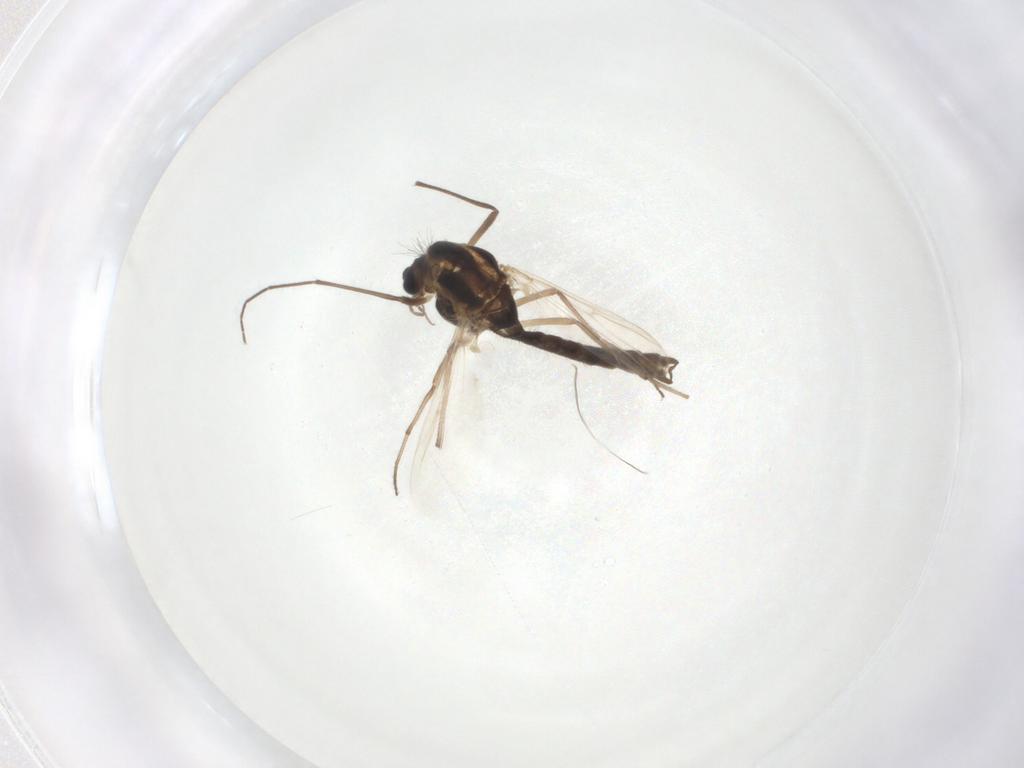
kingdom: Animalia
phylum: Arthropoda
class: Insecta
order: Diptera
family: Chironomidae
